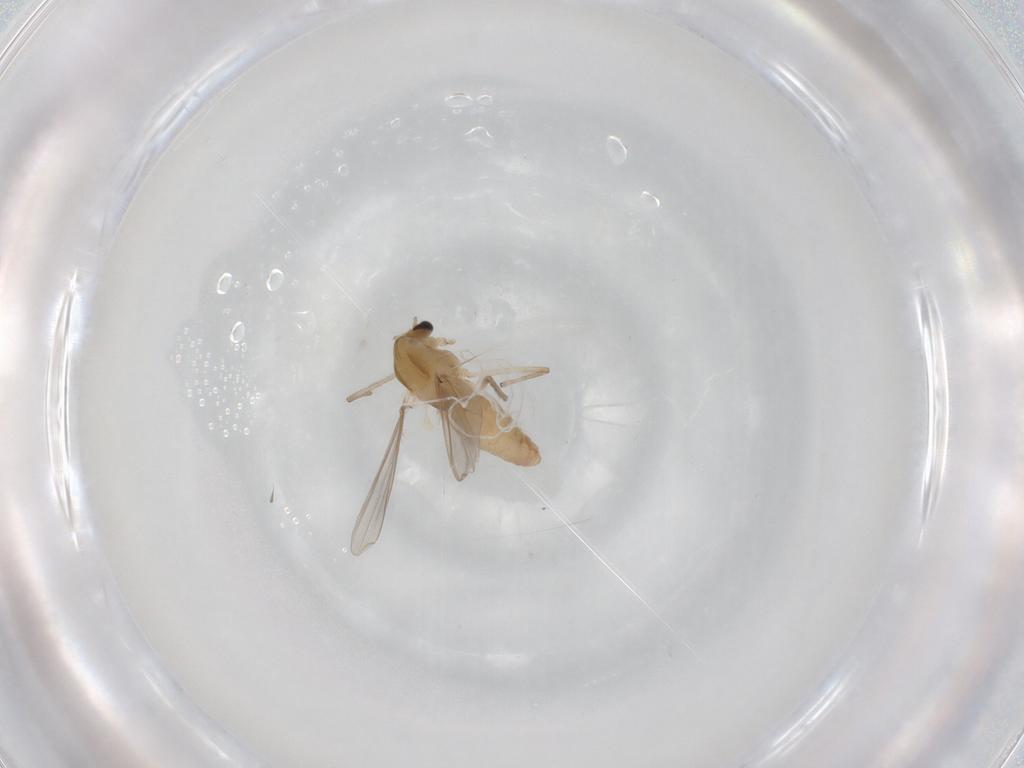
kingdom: Animalia
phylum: Arthropoda
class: Insecta
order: Diptera
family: Chironomidae
